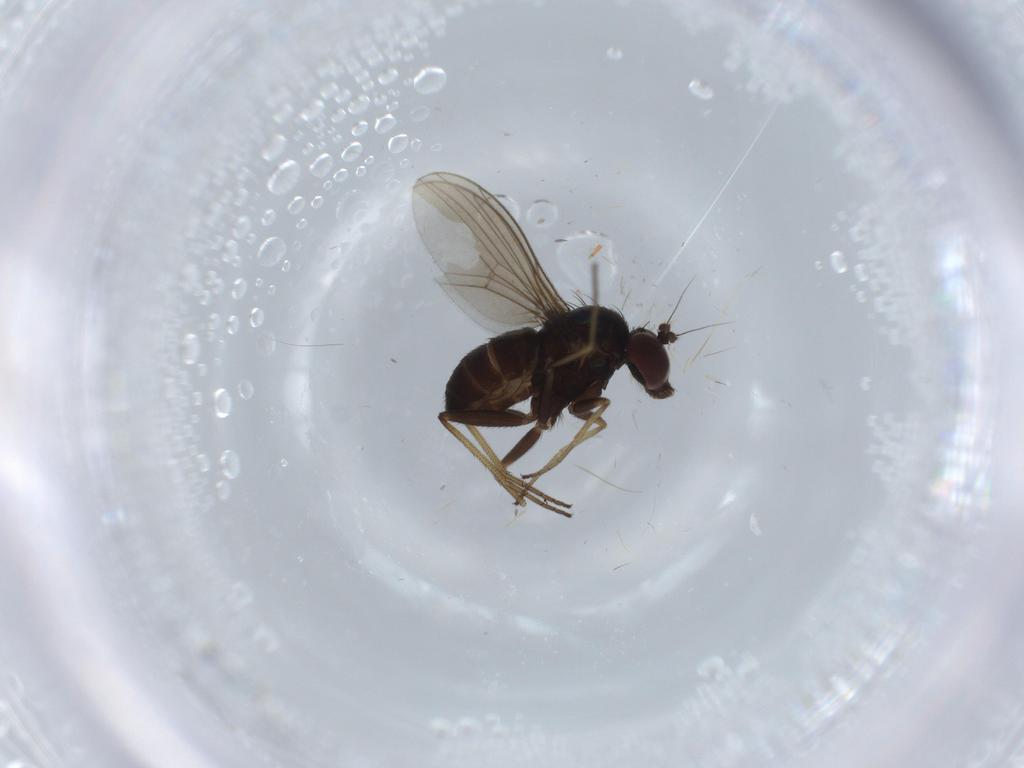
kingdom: Animalia
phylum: Arthropoda
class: Insecta
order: Diptera
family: Dolichopodidae
